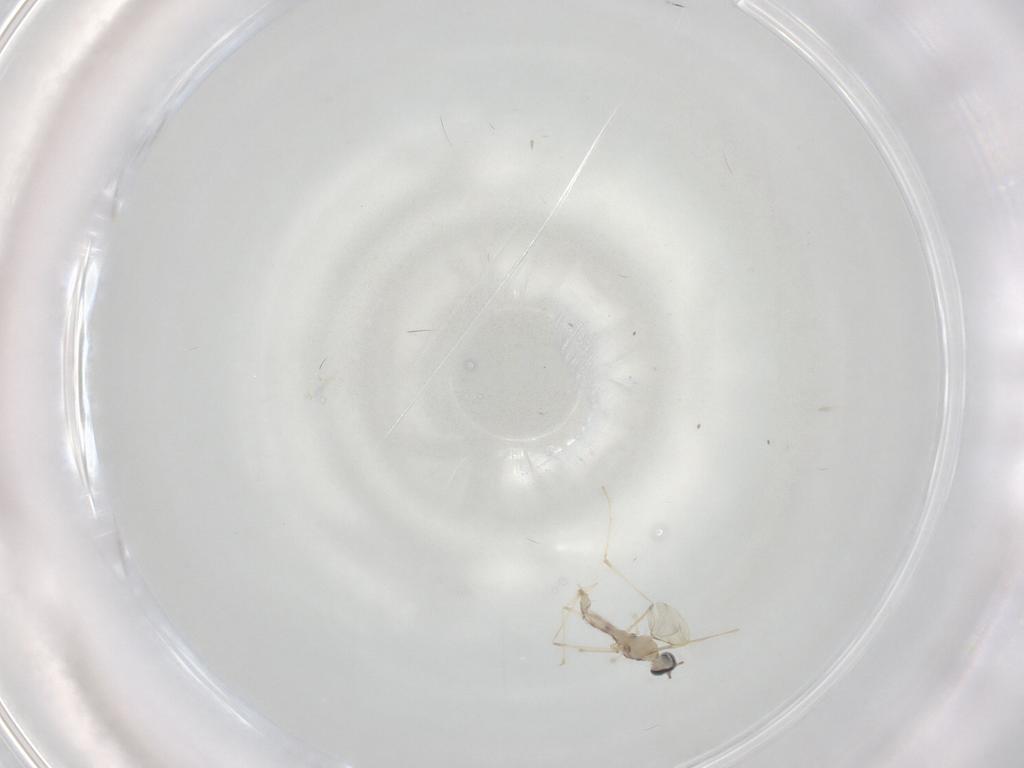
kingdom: Animalia
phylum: Arthropoda
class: Insecta
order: Diptera
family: Cecidomyiidae
